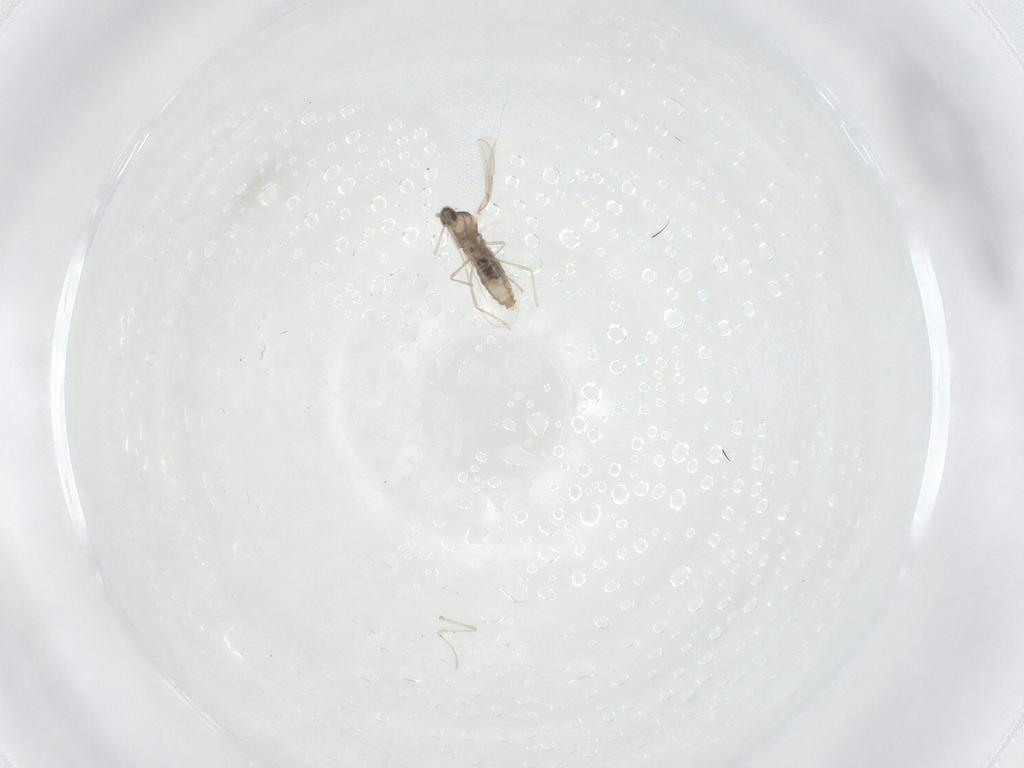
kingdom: Animalia
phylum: Arthropoda
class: Insecta
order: Diptera
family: Cecidomyiidae
